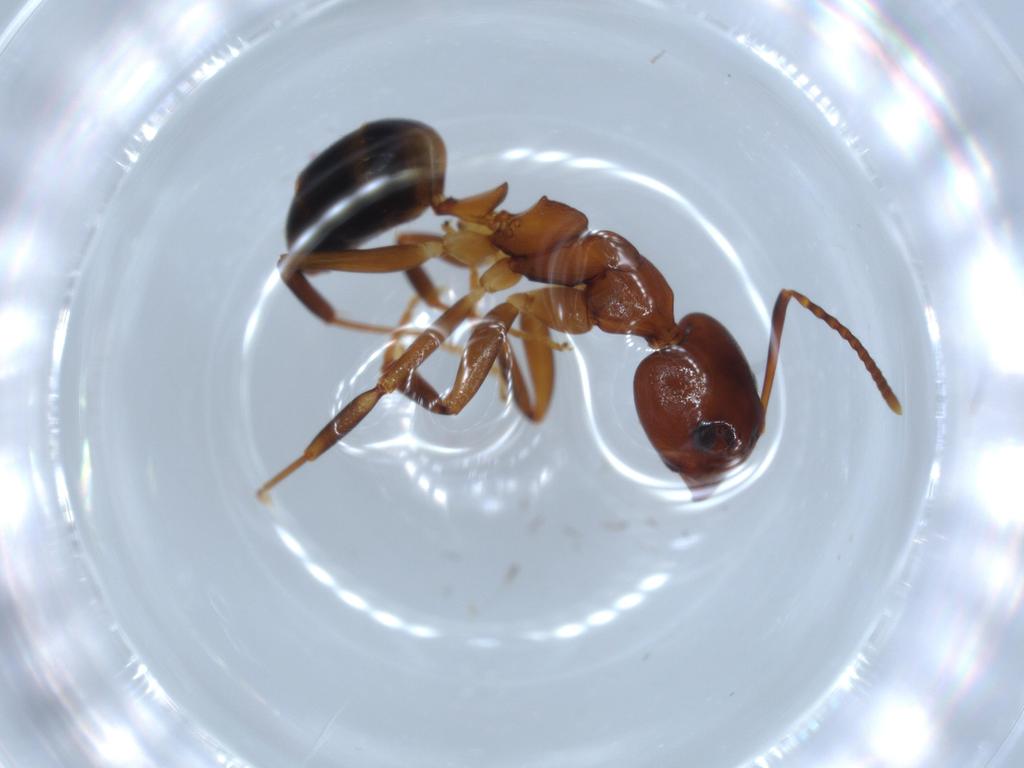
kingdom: Animalia
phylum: Arthropoda
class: Insecta
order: Hymenoptera
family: Formicidae
